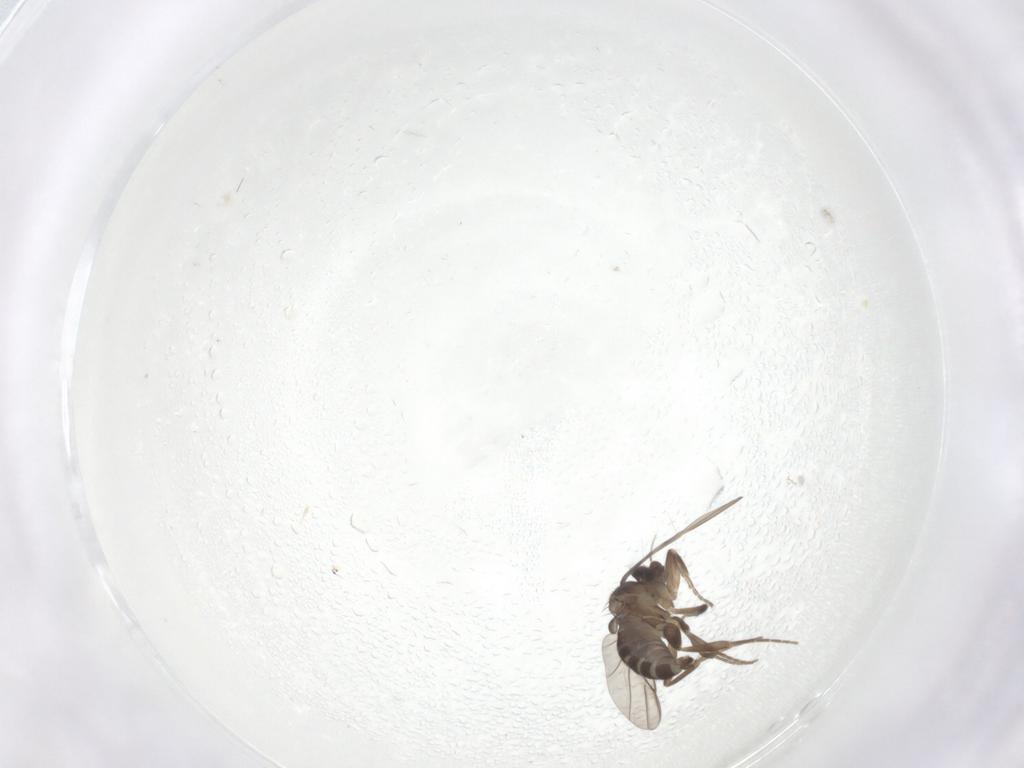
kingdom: Animalia
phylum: Arthropoda
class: Insecta
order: Diptera
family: Phoridae
